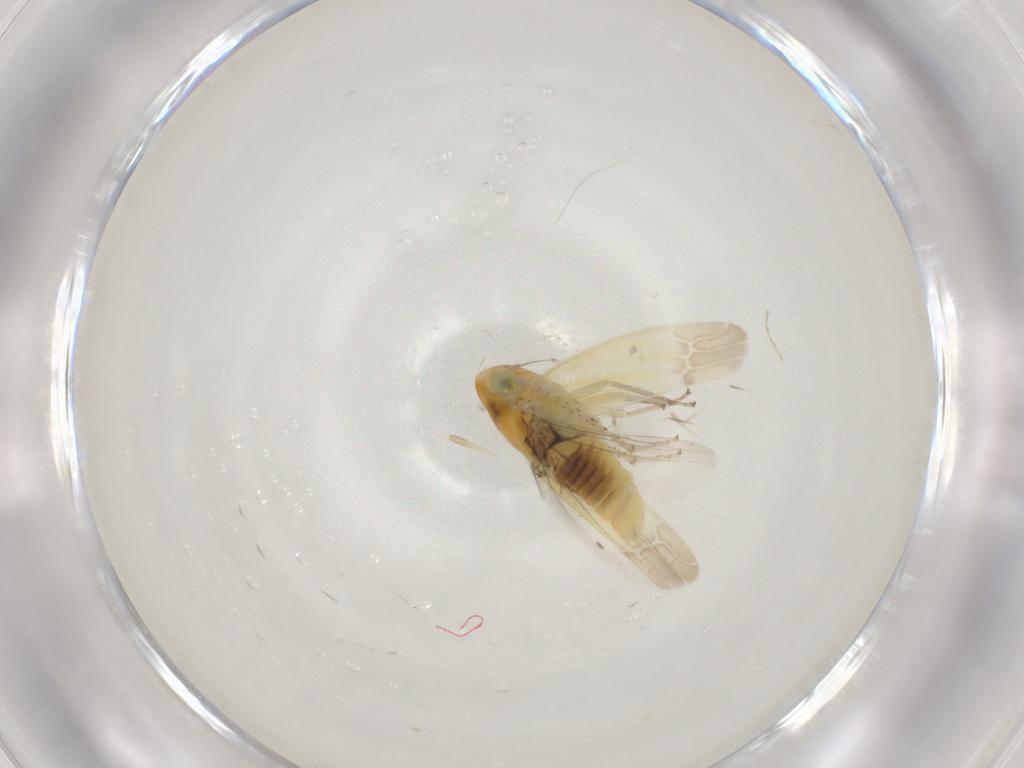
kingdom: Animalia
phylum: Arthropoda
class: Insecta
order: Hemiptera
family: Cicadellidae
